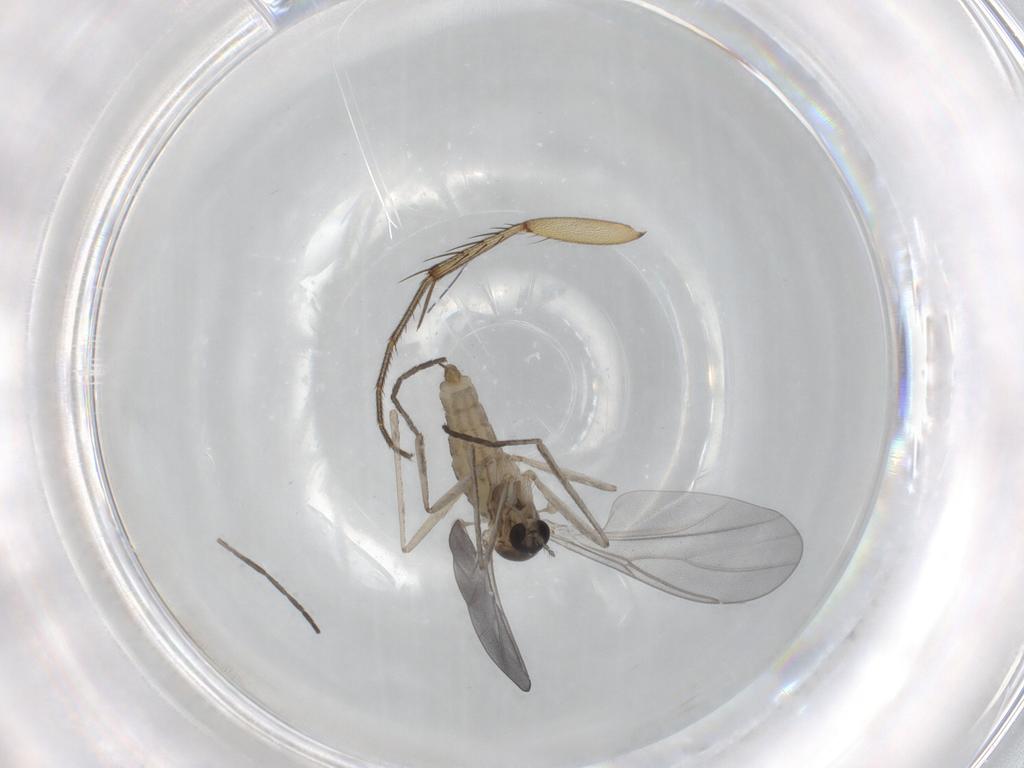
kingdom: Animalia
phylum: Arthropoda
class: Insecta
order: Diptera
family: Cecidomyiidae
